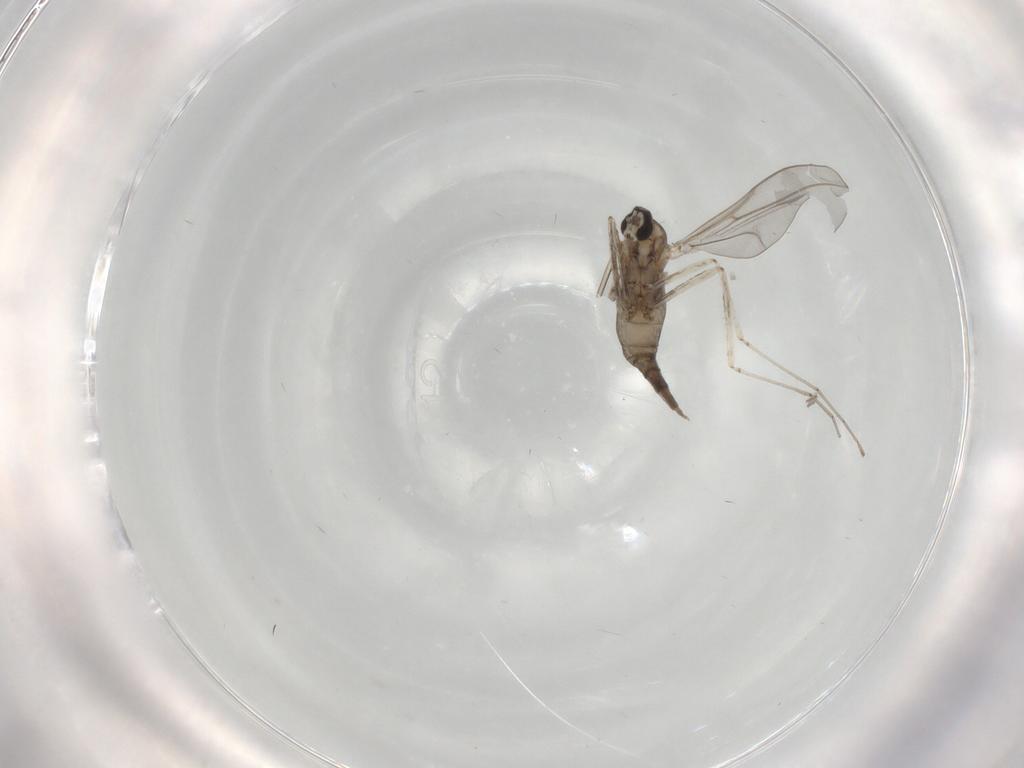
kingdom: Animalia
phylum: Arthropoda
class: Insecta
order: Diptera
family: Cecidomyiidae
